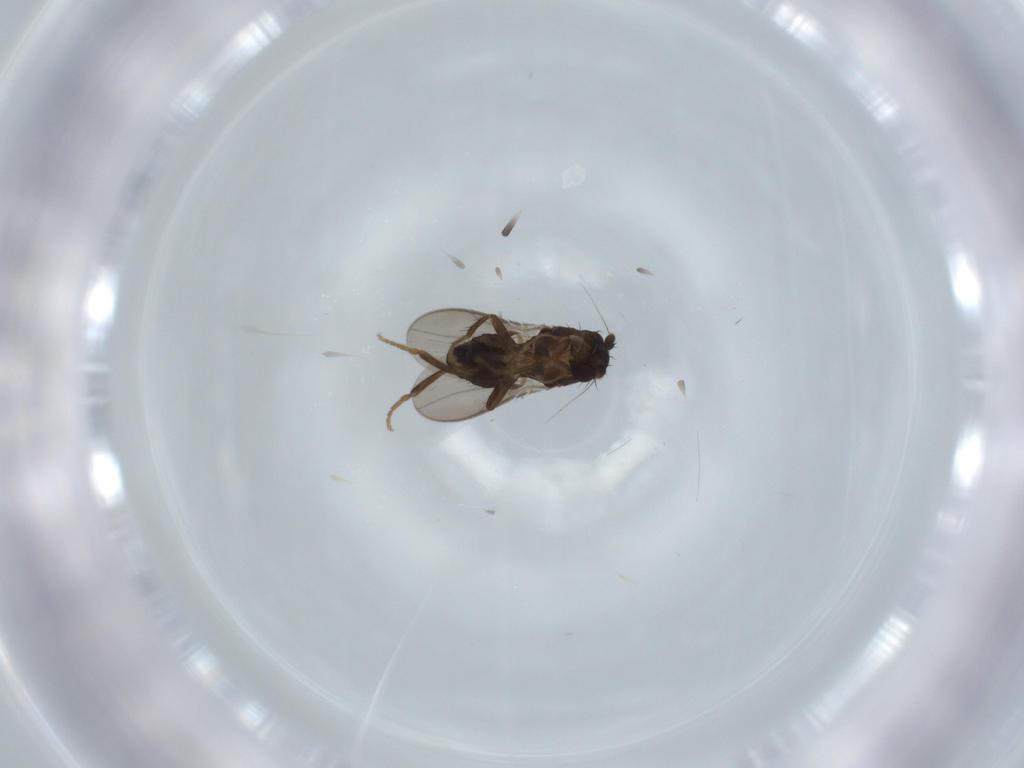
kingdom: Animalia
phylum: Arthropoda
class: Insecta
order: Diptera
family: Sphaeroceridae
